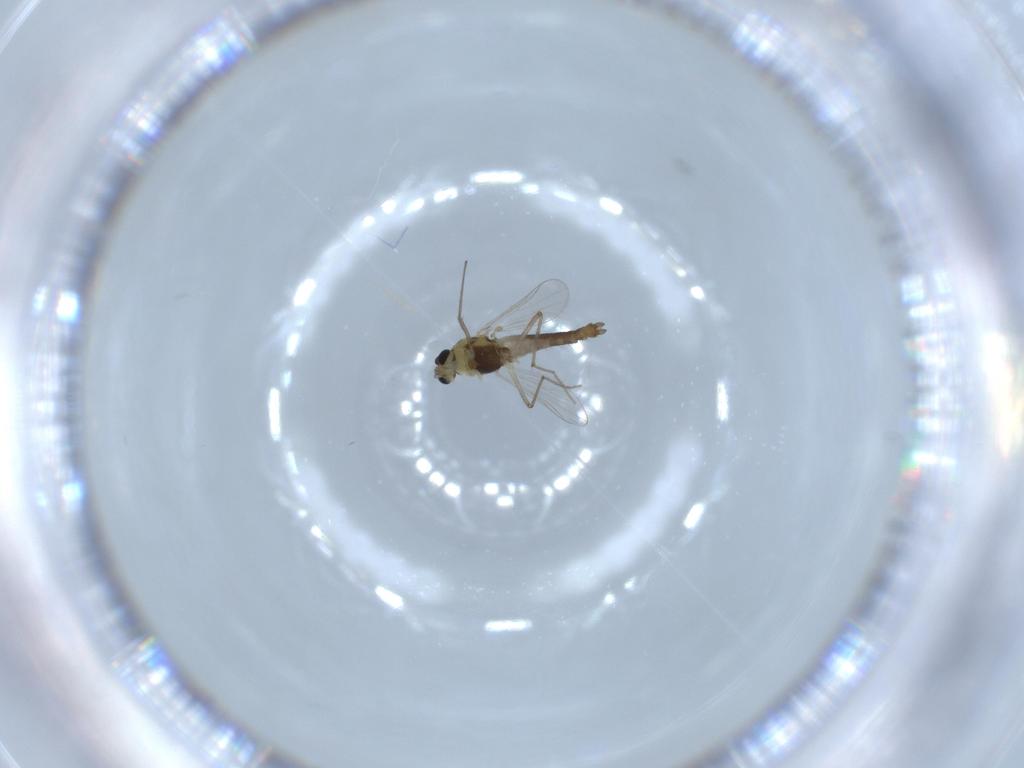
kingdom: Animalia
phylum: Arthropoda
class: Insecta
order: Diptera
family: Chironomidae
